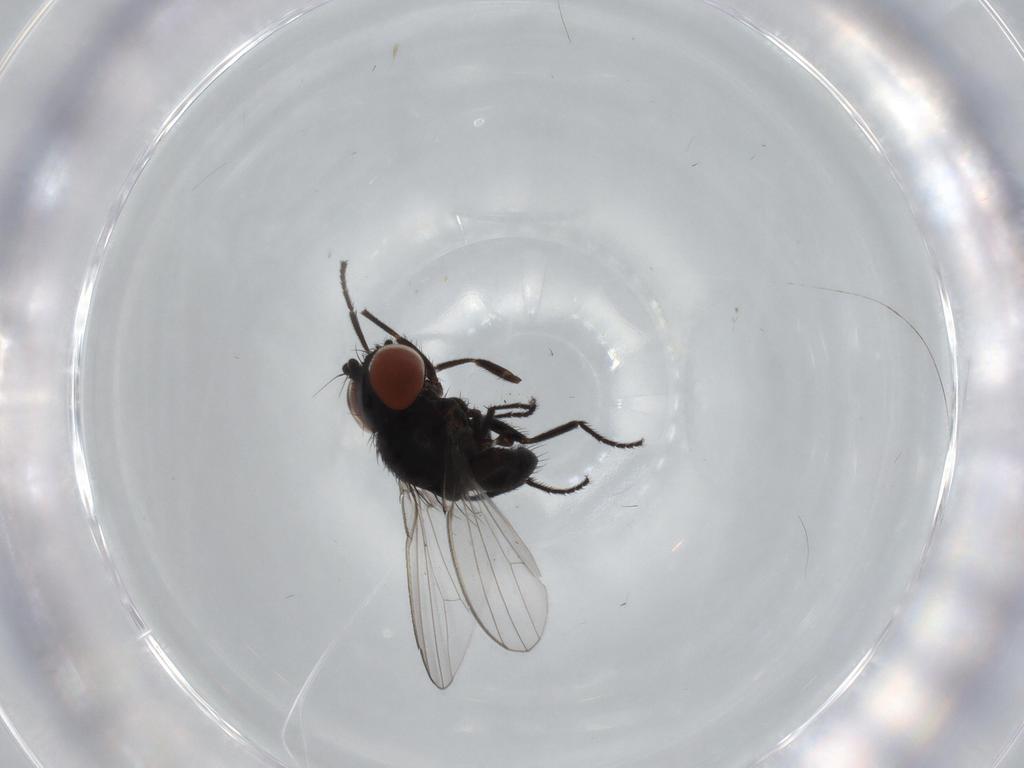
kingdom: Animalia
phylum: Arthropoda
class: Insecta
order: Diptera
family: Milichiidae
